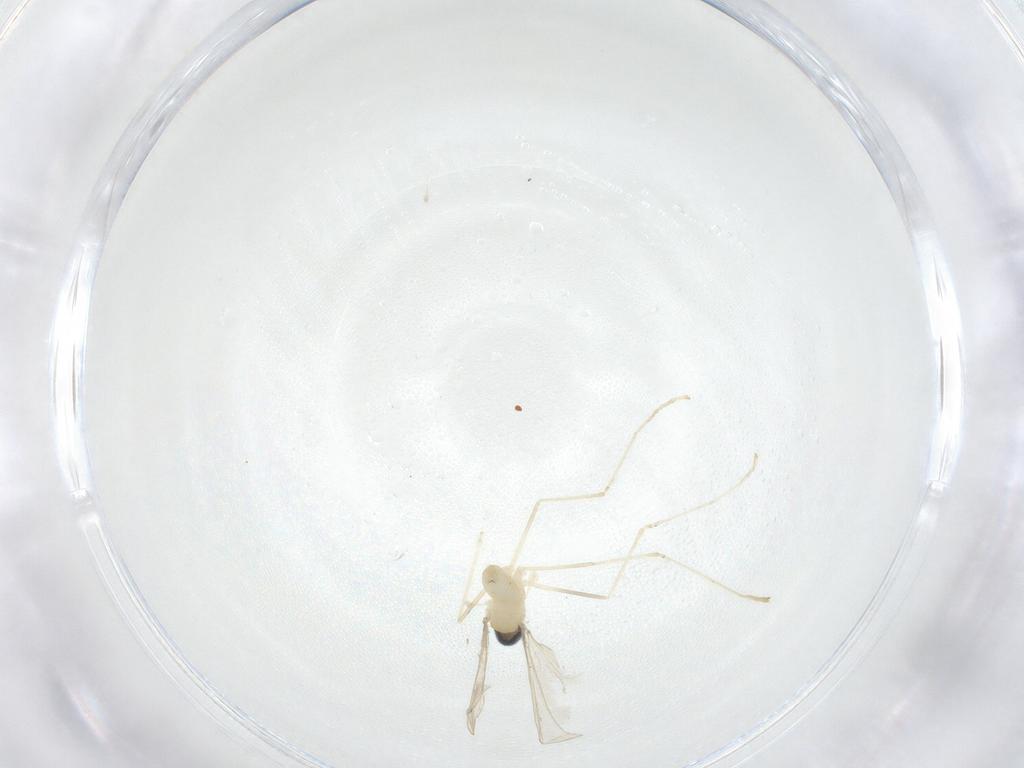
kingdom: Animalia
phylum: Arthropoda
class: Insecta
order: Diptera
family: Cecidomyiidae
